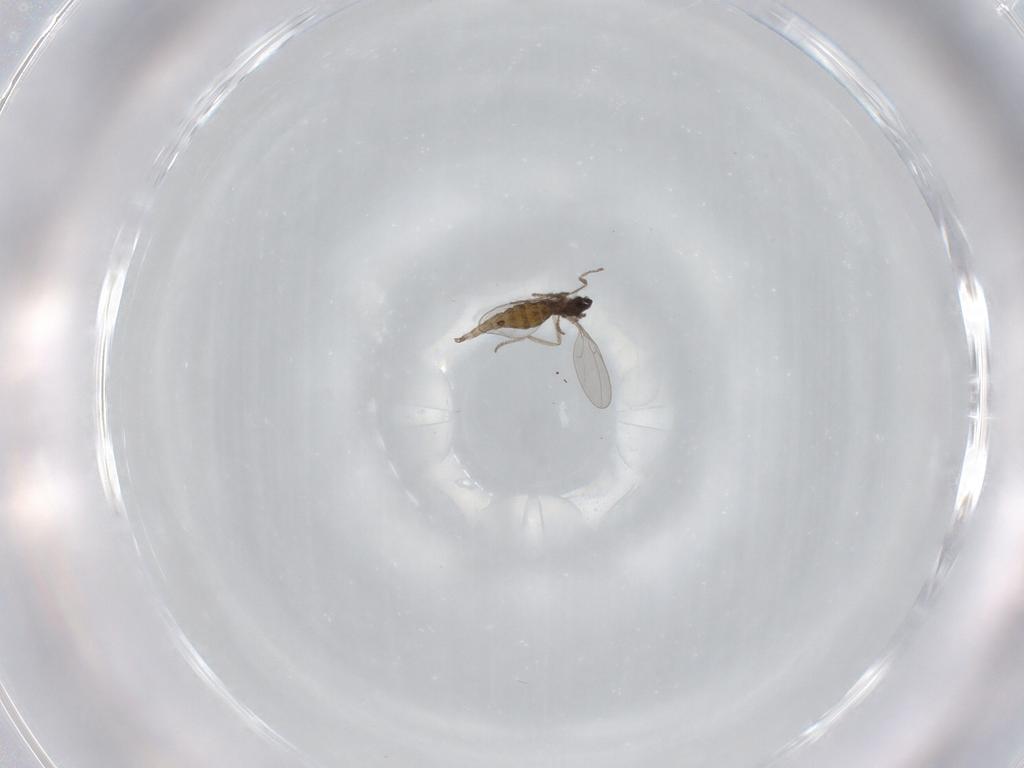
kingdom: Animalia
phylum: Arthropoda
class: Insecta
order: Diptera
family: Cecidomyiidae
